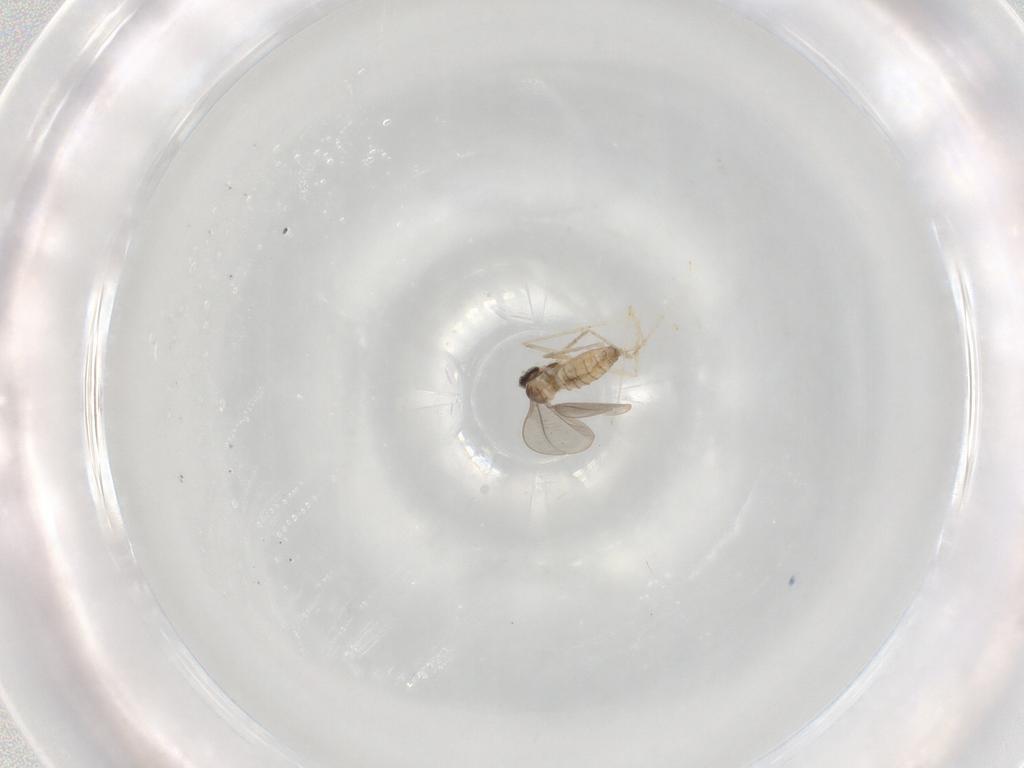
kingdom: Animalia
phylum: Arthropoda
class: Insecta
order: Diptera
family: Cecidomyiidae
